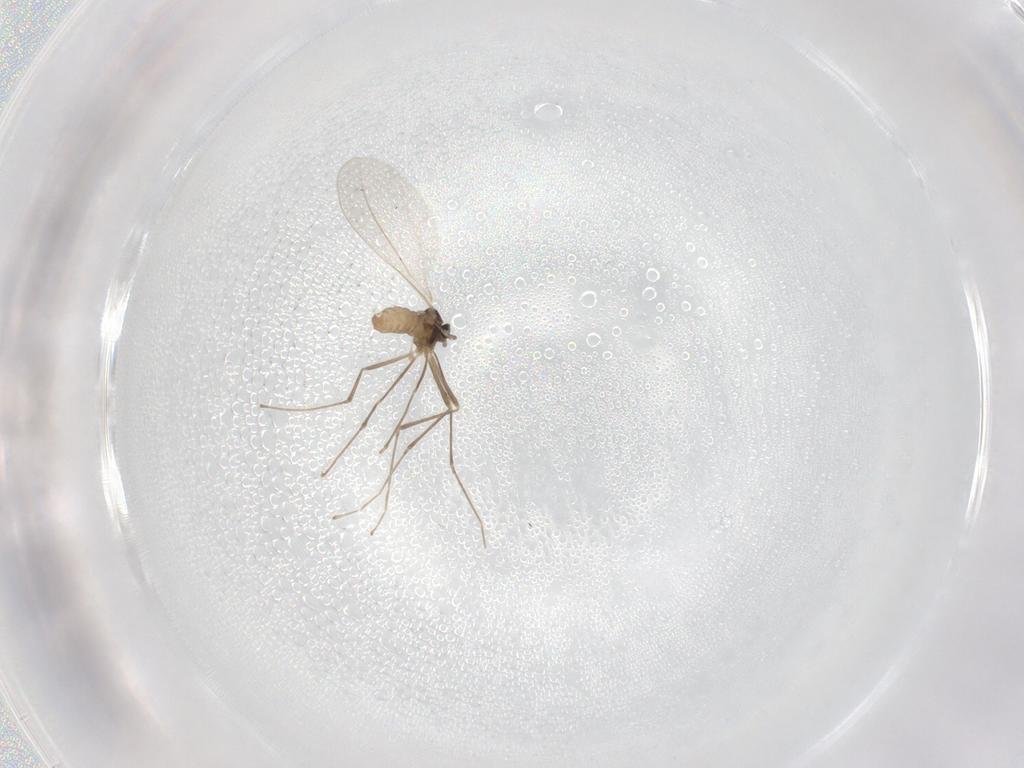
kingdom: Animalia
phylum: Arthropoda
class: Insecta
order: Diptera
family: Cecidomyiidae
